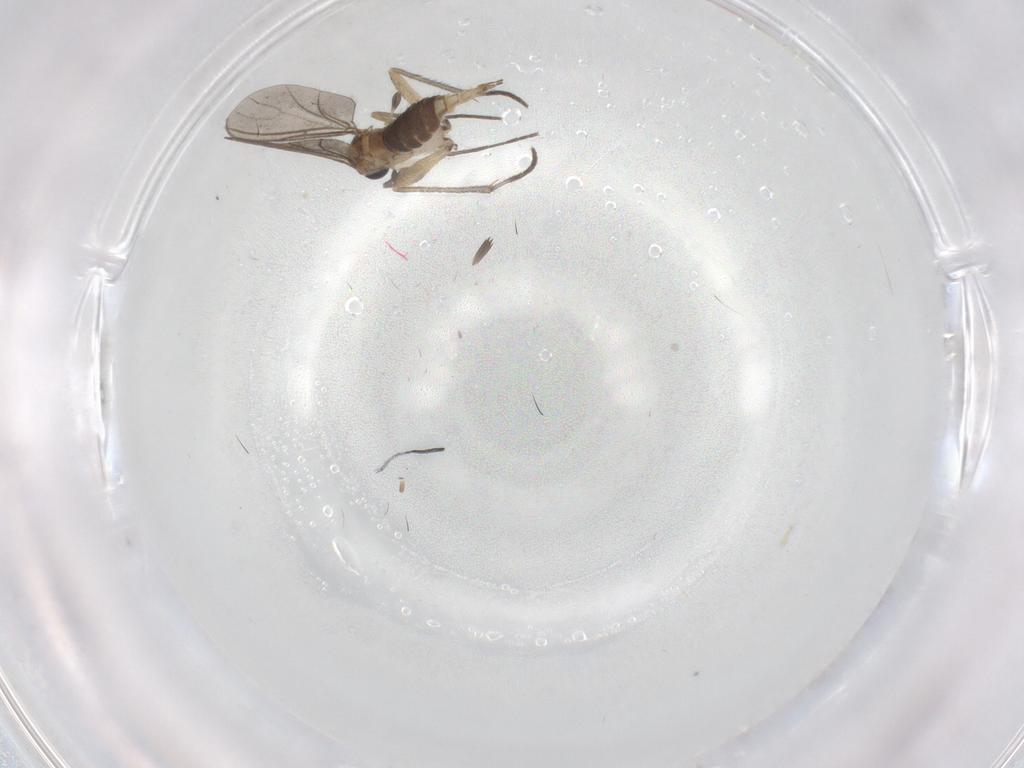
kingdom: Animalia
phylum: Arthropoda
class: Insecta
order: Diptera
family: Sciaridae
